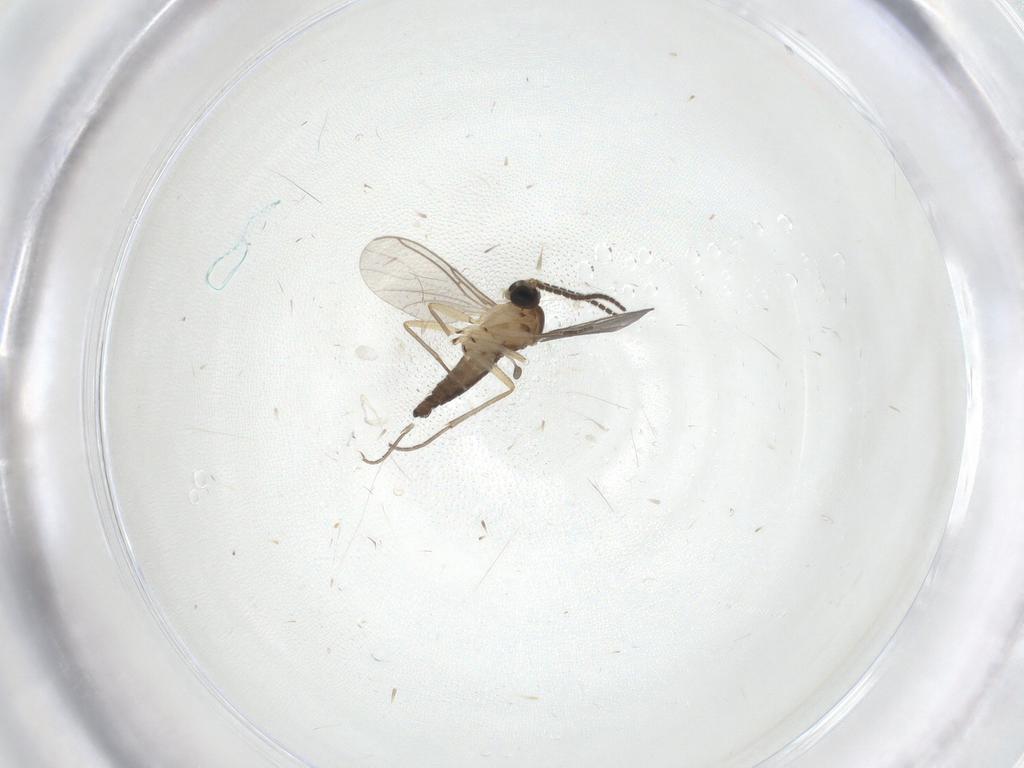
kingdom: Animalia
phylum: Arthropoda
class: Insecta
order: Diptera
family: Sciaridae
